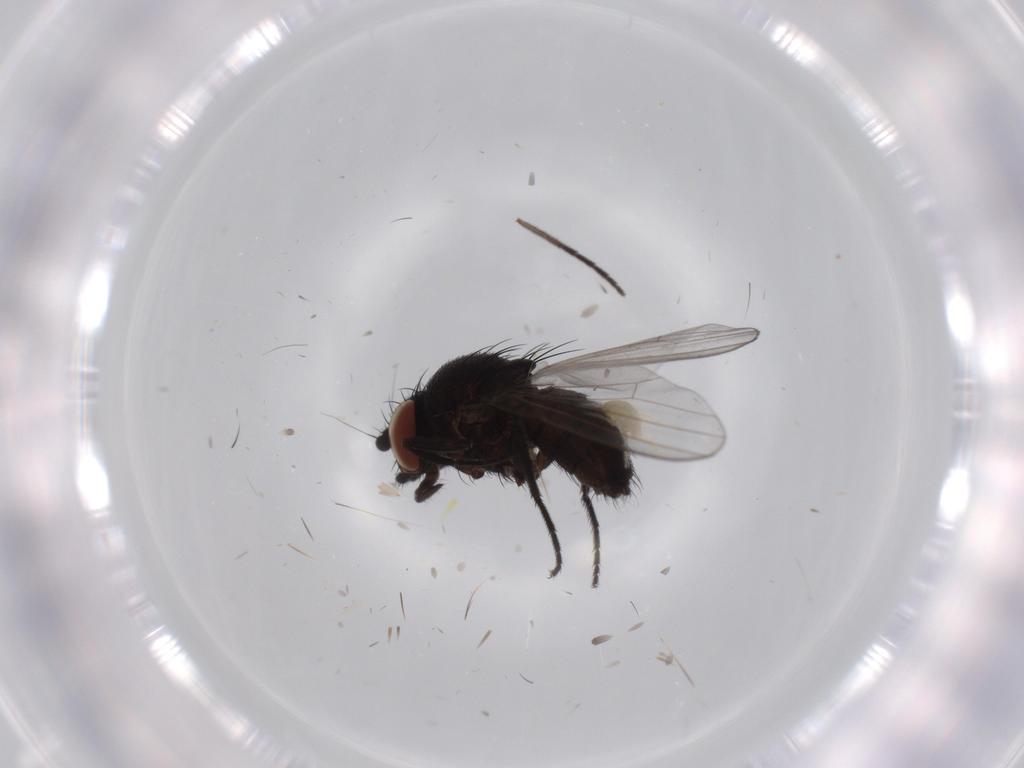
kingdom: Animalia
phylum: Arthropoda
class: Insecta
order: Diptera
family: Milichiidae
